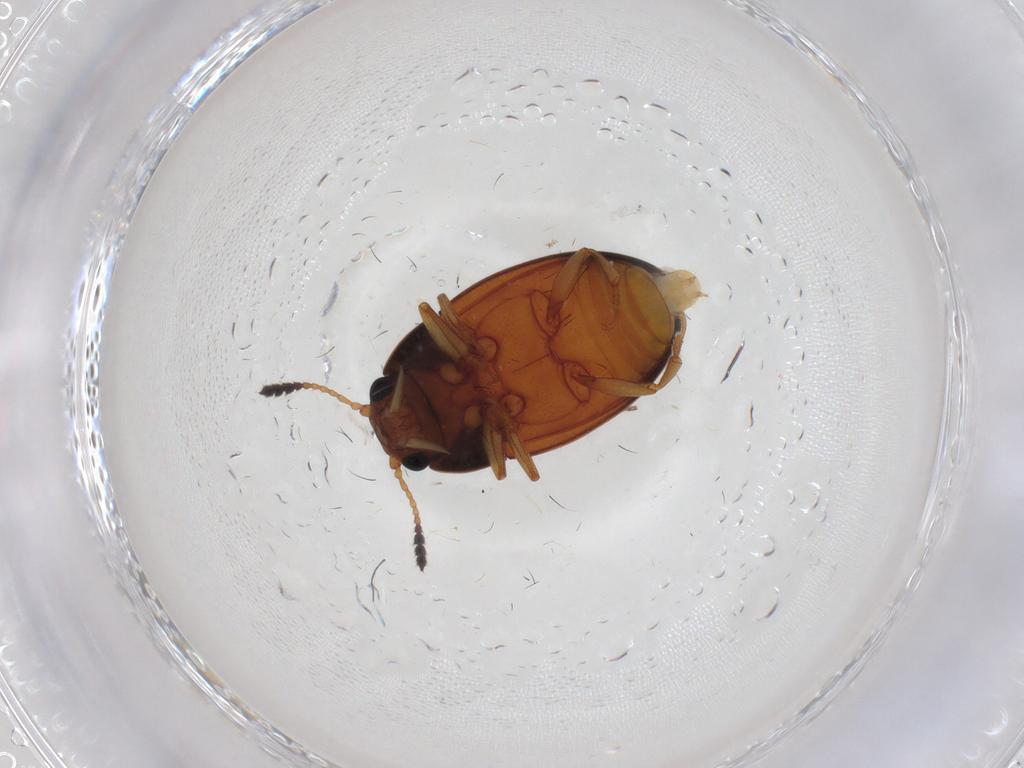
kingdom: Animalia
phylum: Arthropoda
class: Insecta
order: Coleoptera
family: Erotylidae
